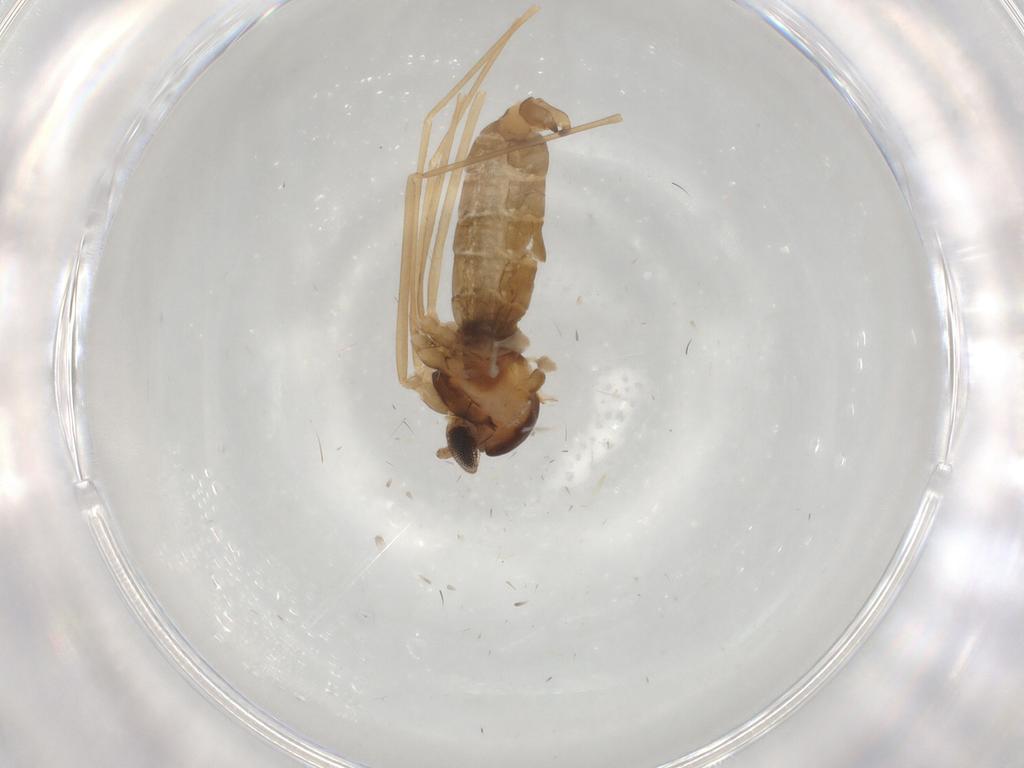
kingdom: Animalia
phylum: Arthropoda
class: Insecta
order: Diptera
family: Cecidomyiidae
